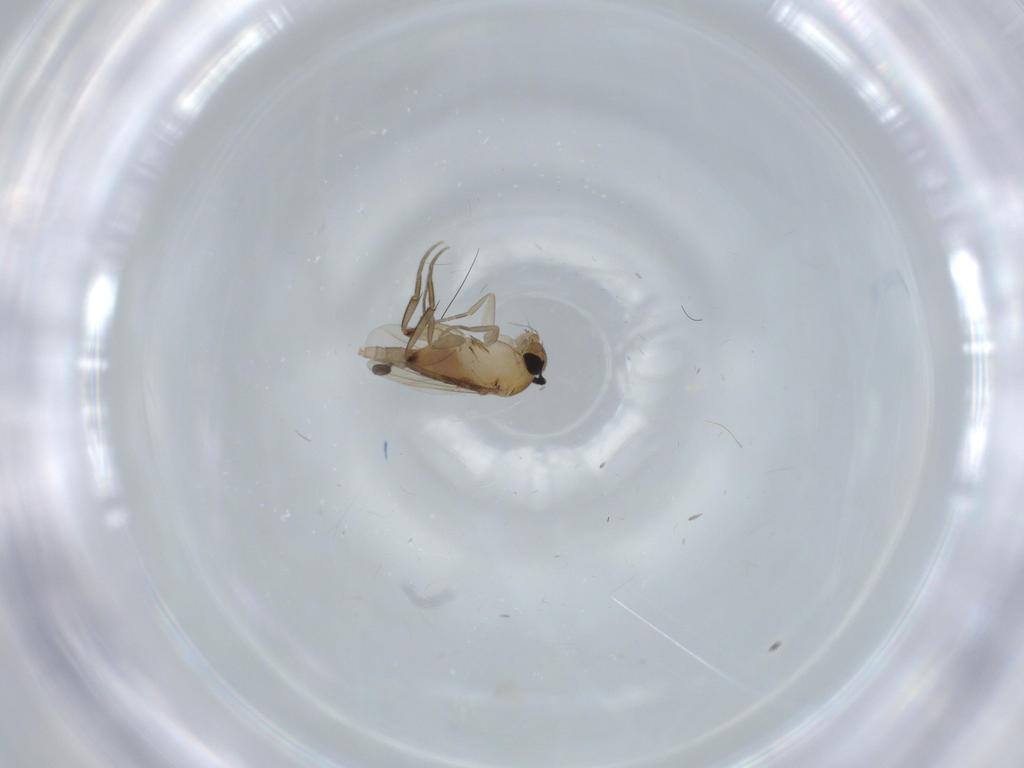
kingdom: Animalia
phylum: Arthropoda
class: Insecta
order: Diptera
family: Phoridae
